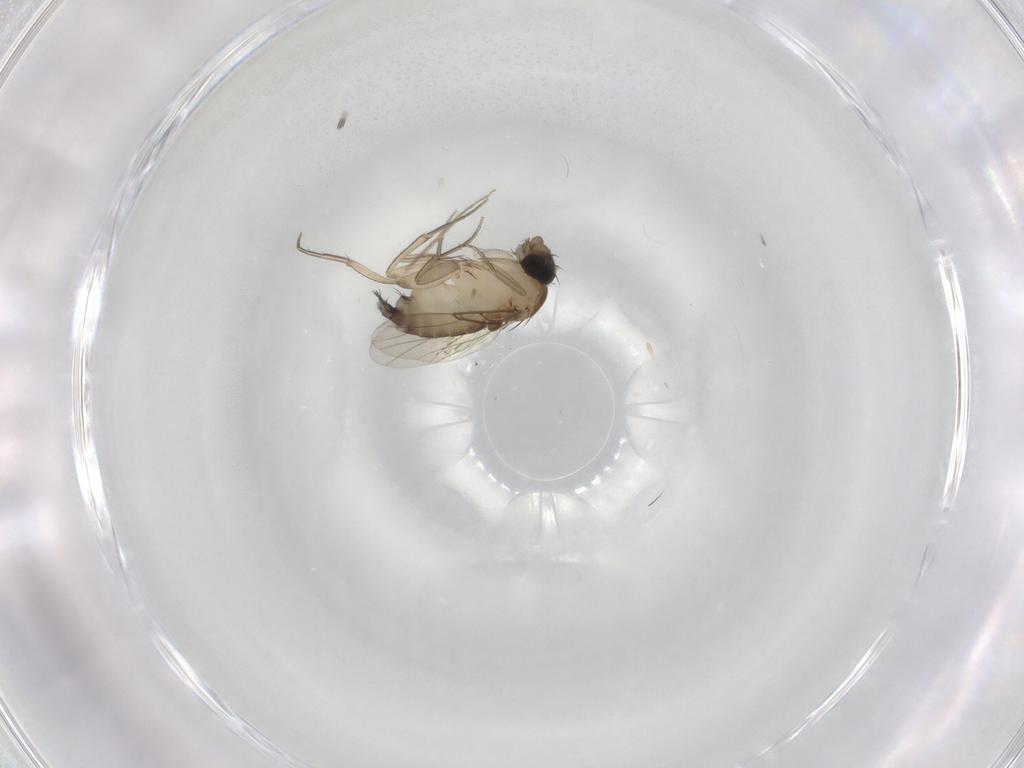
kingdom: Animalia
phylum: Arthropoda
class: Insecta
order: Diptera
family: Phoridae
